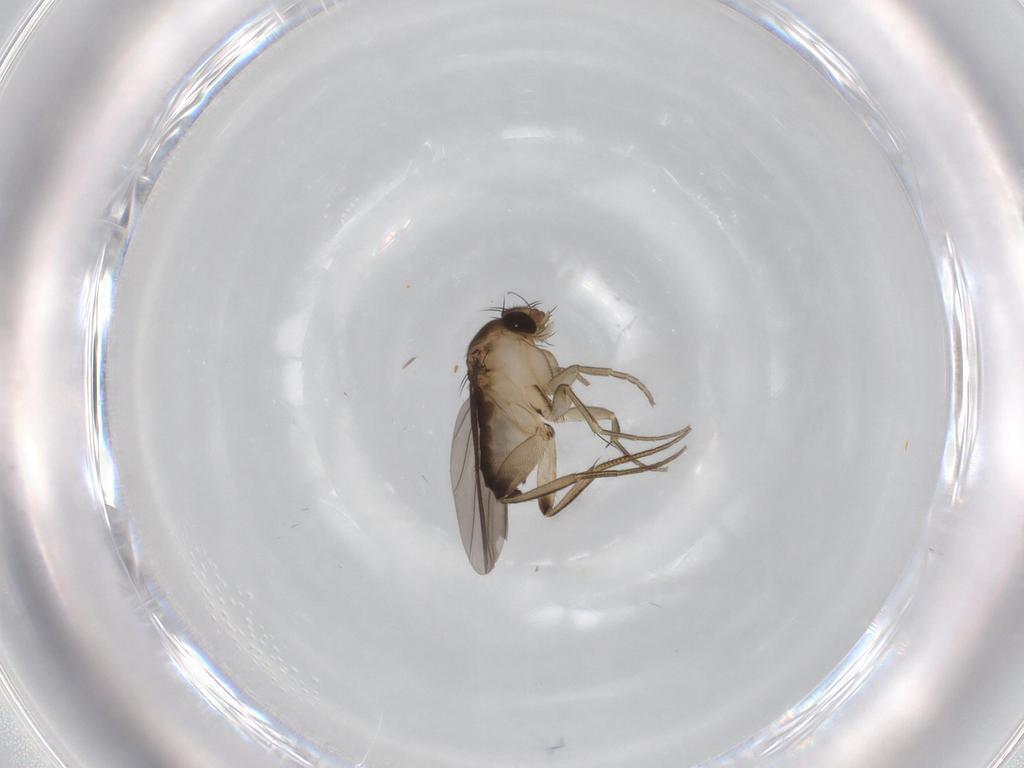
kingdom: Animalia
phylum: Arthropoda
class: Insecta
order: Diptera
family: Phoridae
